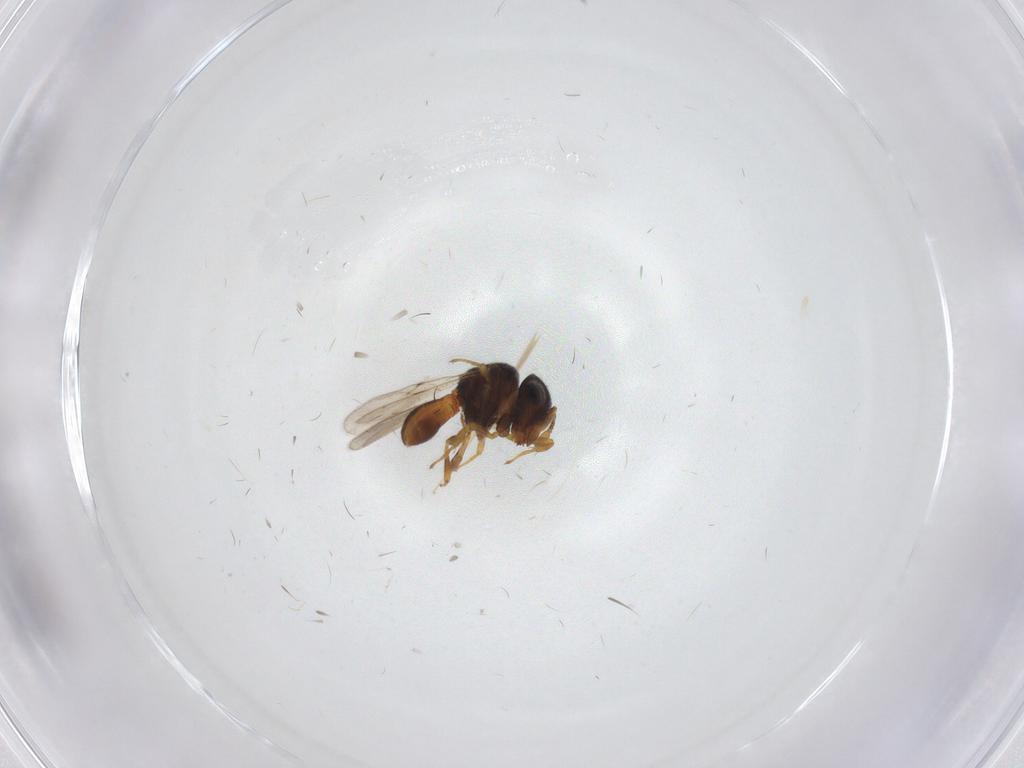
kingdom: Animalia
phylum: Arthropoda
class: Insecta
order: Hymenoptera
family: Scelionidae
